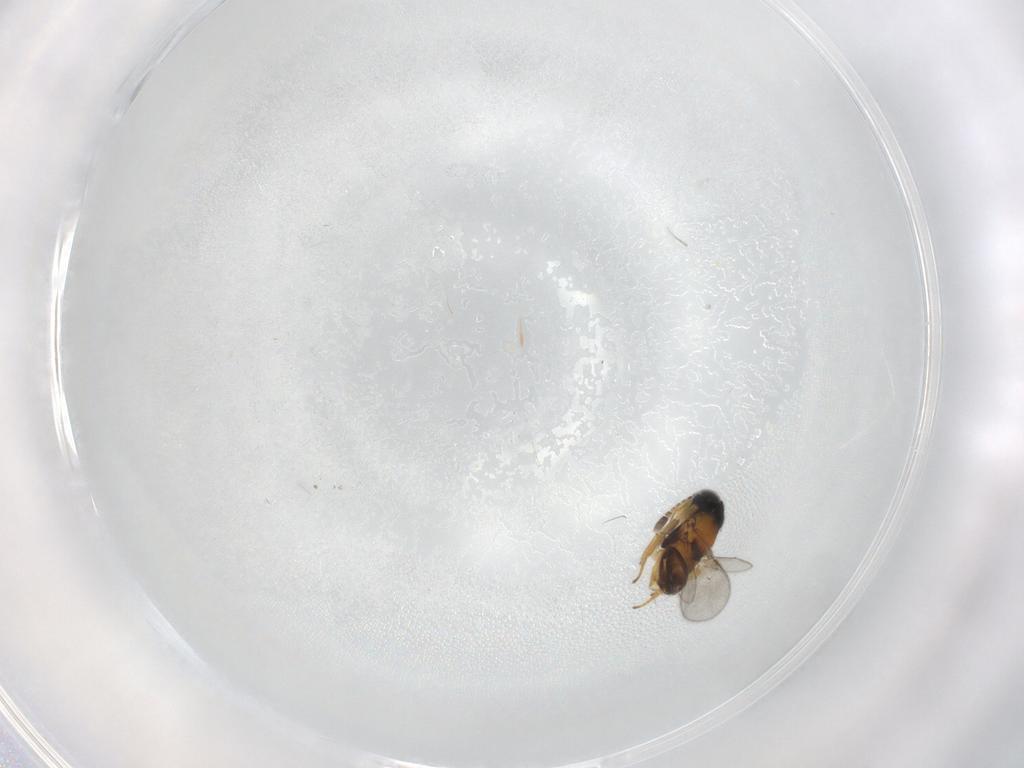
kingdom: Animalia
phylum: Arthropoda
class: Insecta
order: Hymenoptera
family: Encyrtidae
